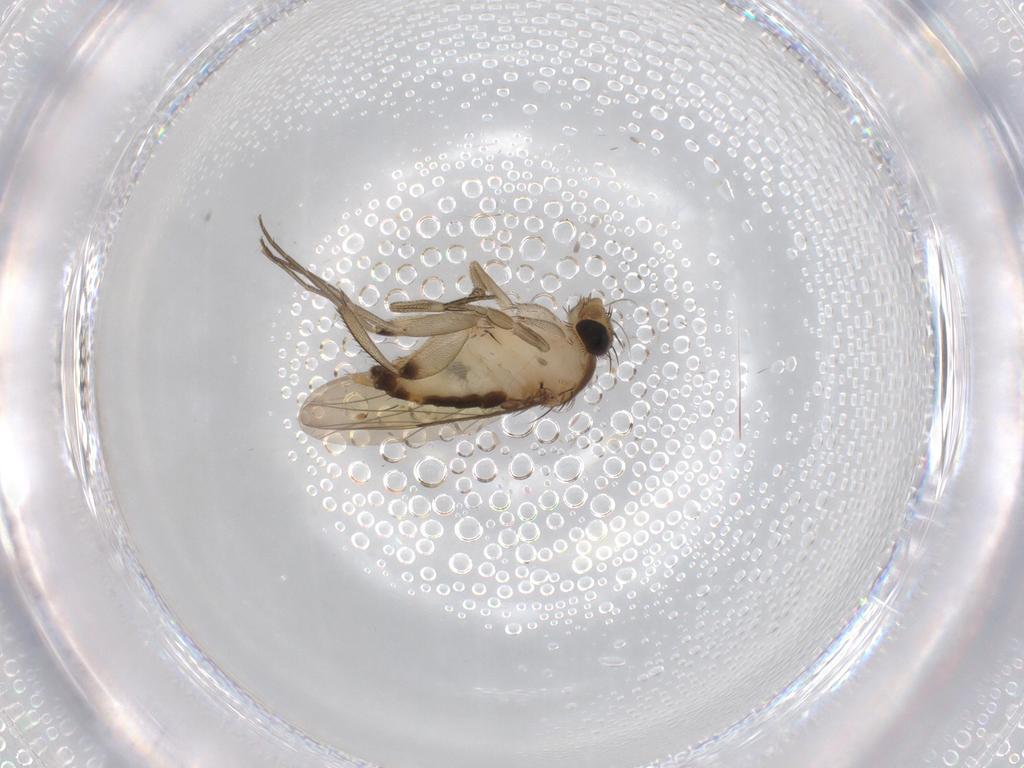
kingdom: Animalia
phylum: Arthropoda
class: Insecta
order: Diptera
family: Phoridae
